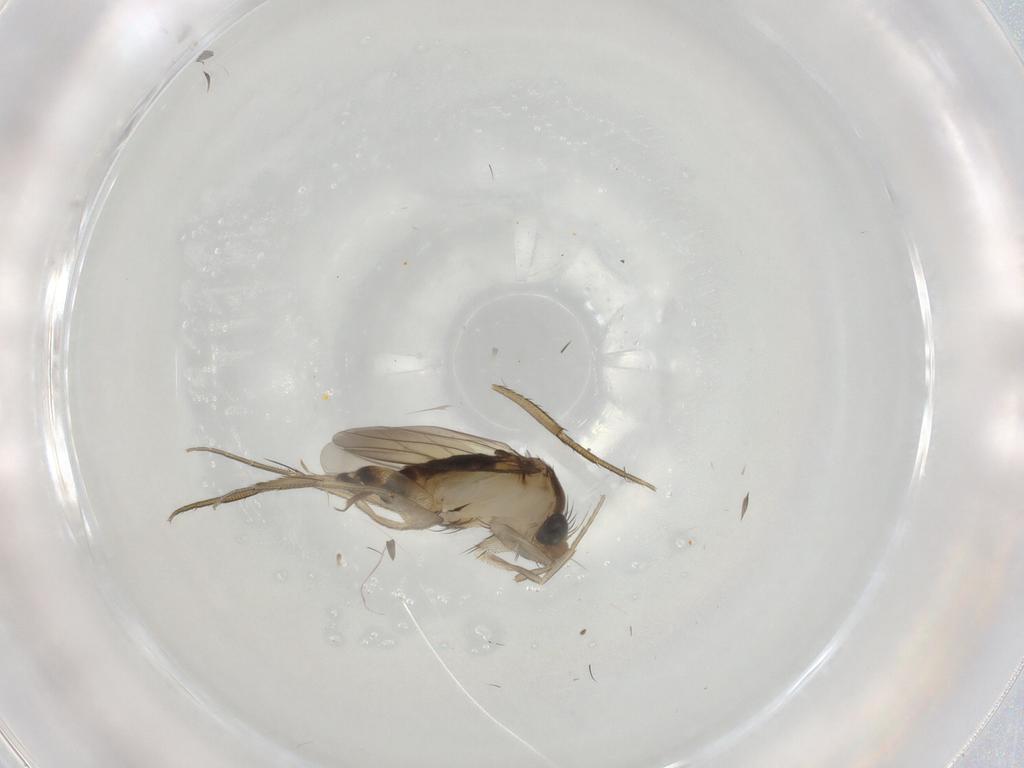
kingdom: Animalia
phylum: Arthropoda
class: Insecta
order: Diptera
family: Phoridae
